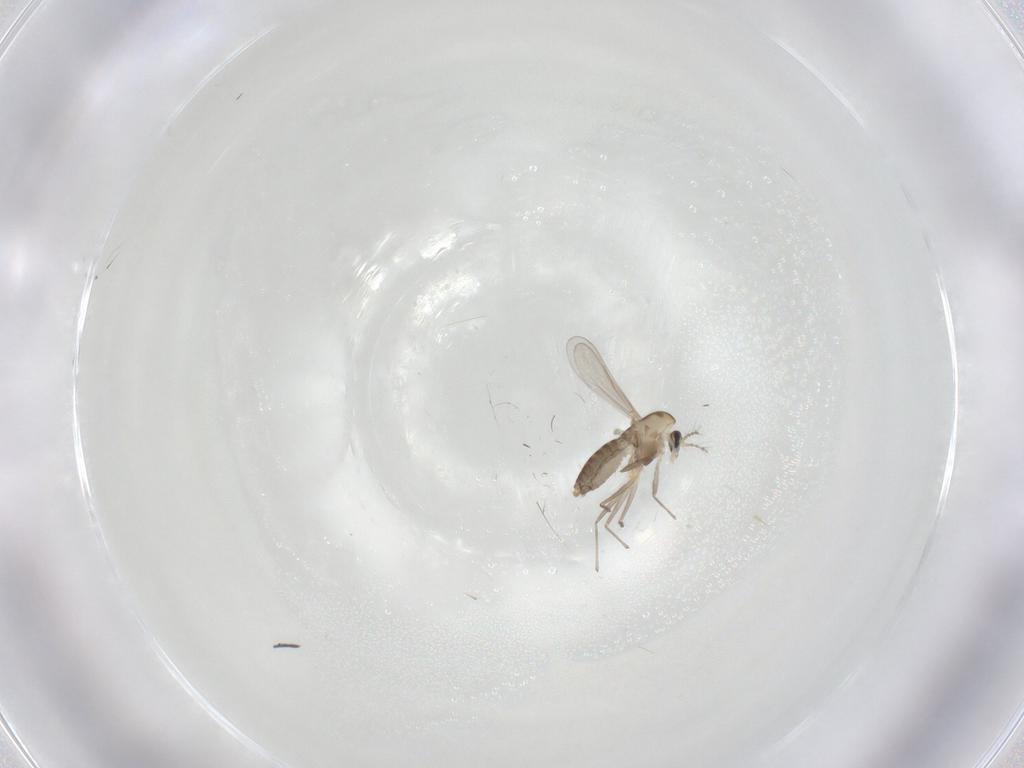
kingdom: Animalia
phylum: Arthropoda
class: Insecta
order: Diptera
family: Chironomidae
